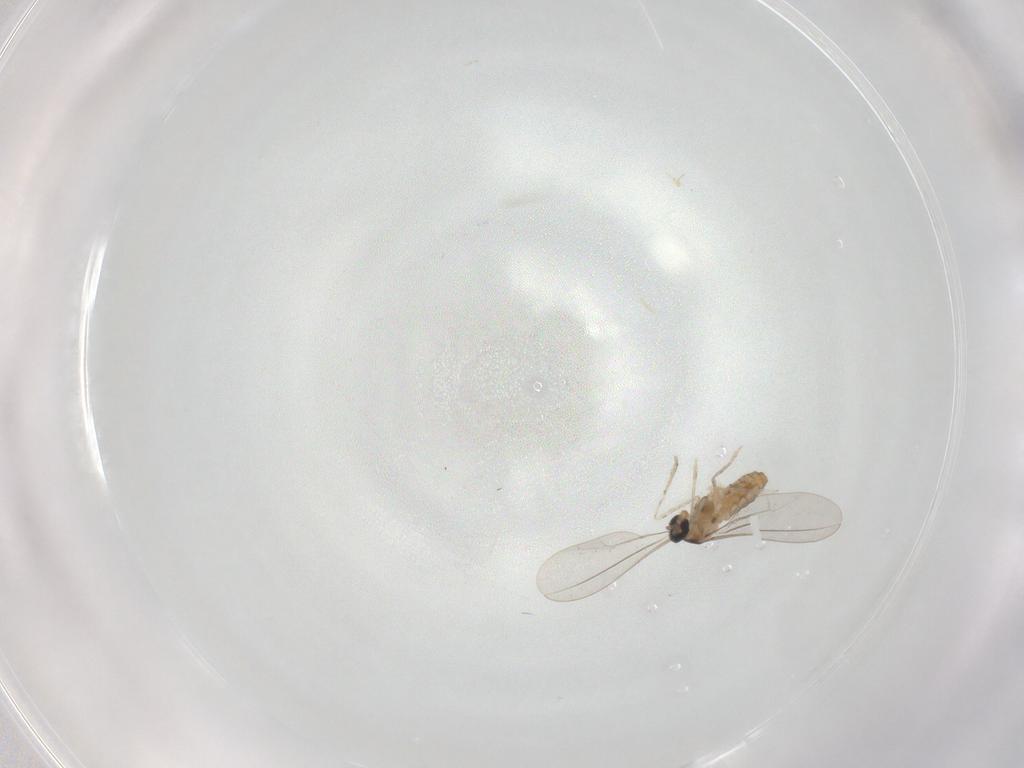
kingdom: Animalia
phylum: Arthropoda
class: Insecta
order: Diptera
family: Cecidomyiidae
